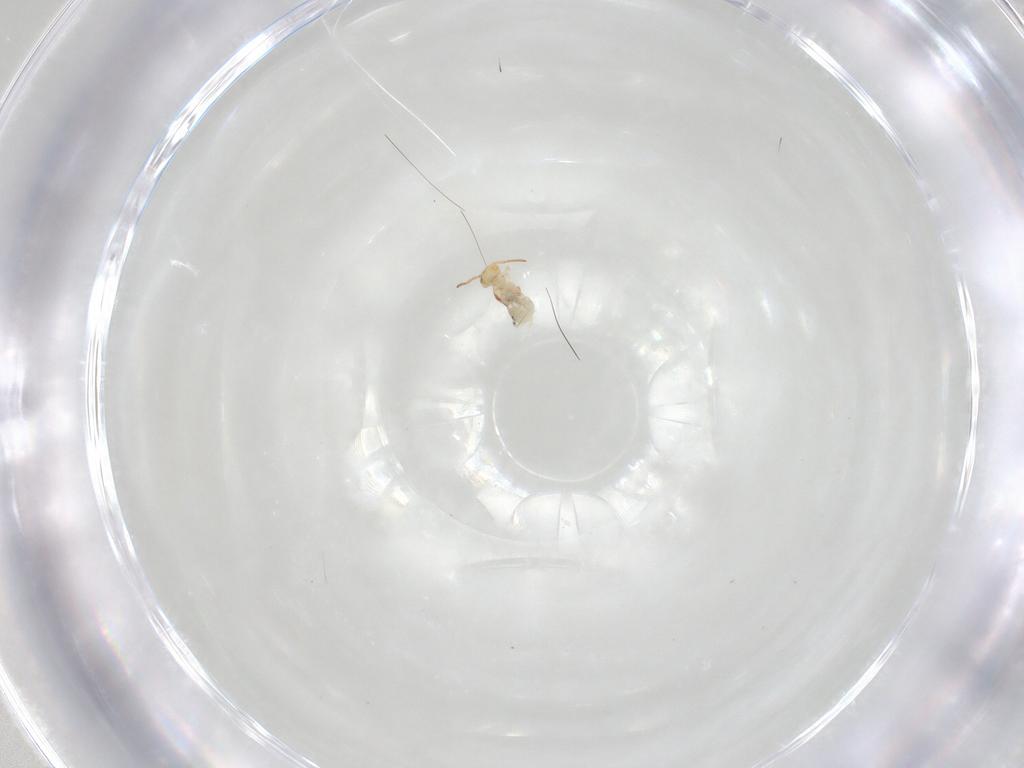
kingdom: Animalia
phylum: Arthropoda
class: Collembola
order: Symphypleona
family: Bourletiellidae
